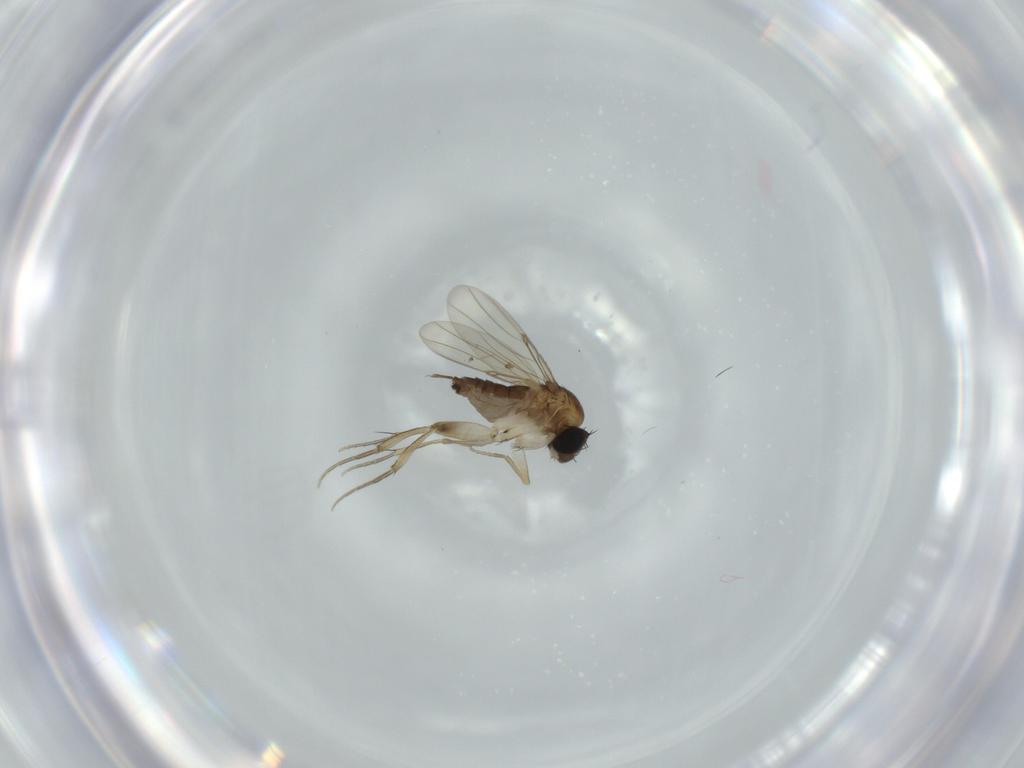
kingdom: Animalia
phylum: Arthropoda
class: Insecta
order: Diptera
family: Phoridae
